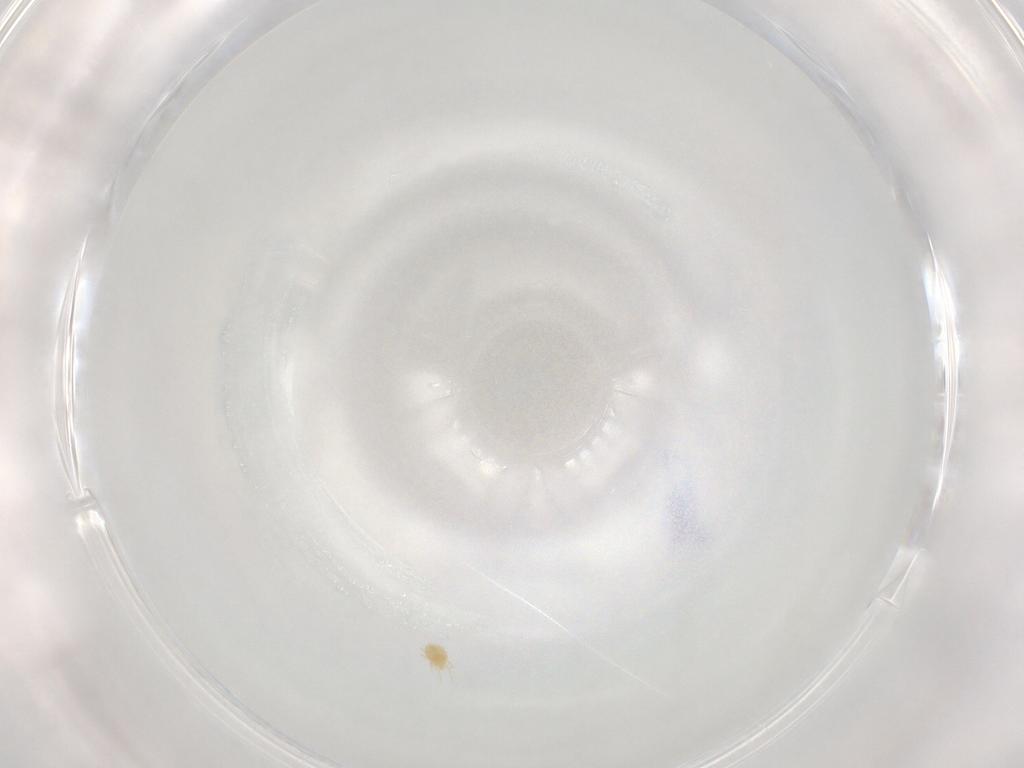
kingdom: Animalia
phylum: Arthropoda
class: Arachnida
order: Trombidiformes
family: Tetranychidae
